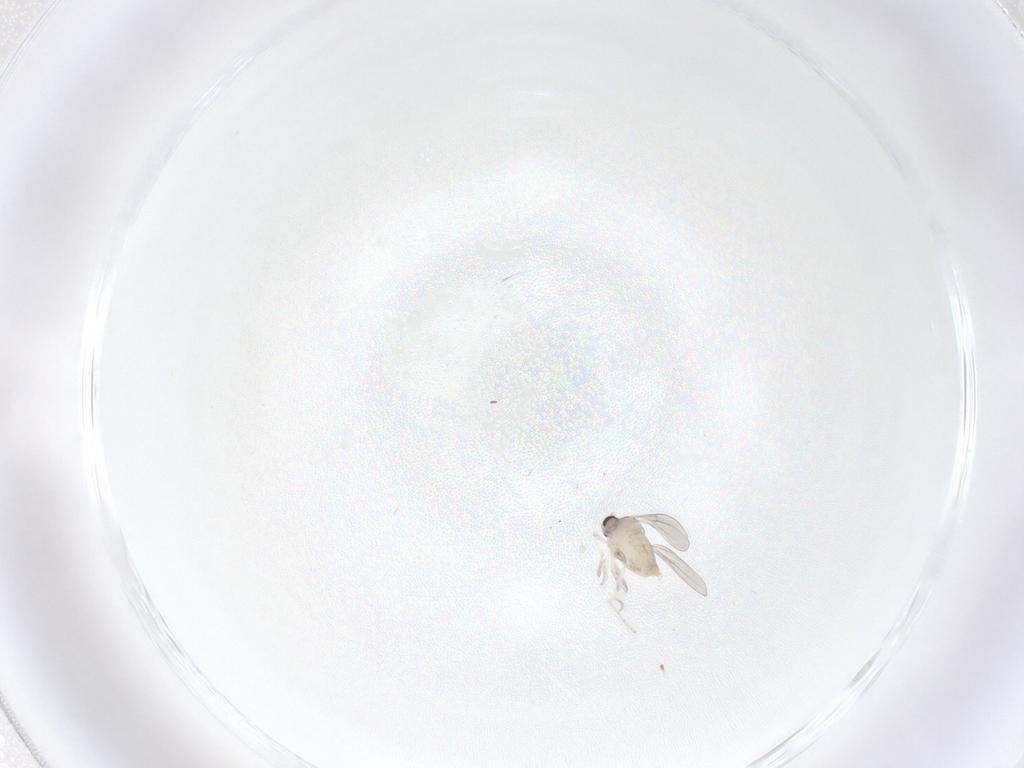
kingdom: Animalia
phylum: Arthropoda
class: Insecta
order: Diptera
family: Cecidomyiidae
